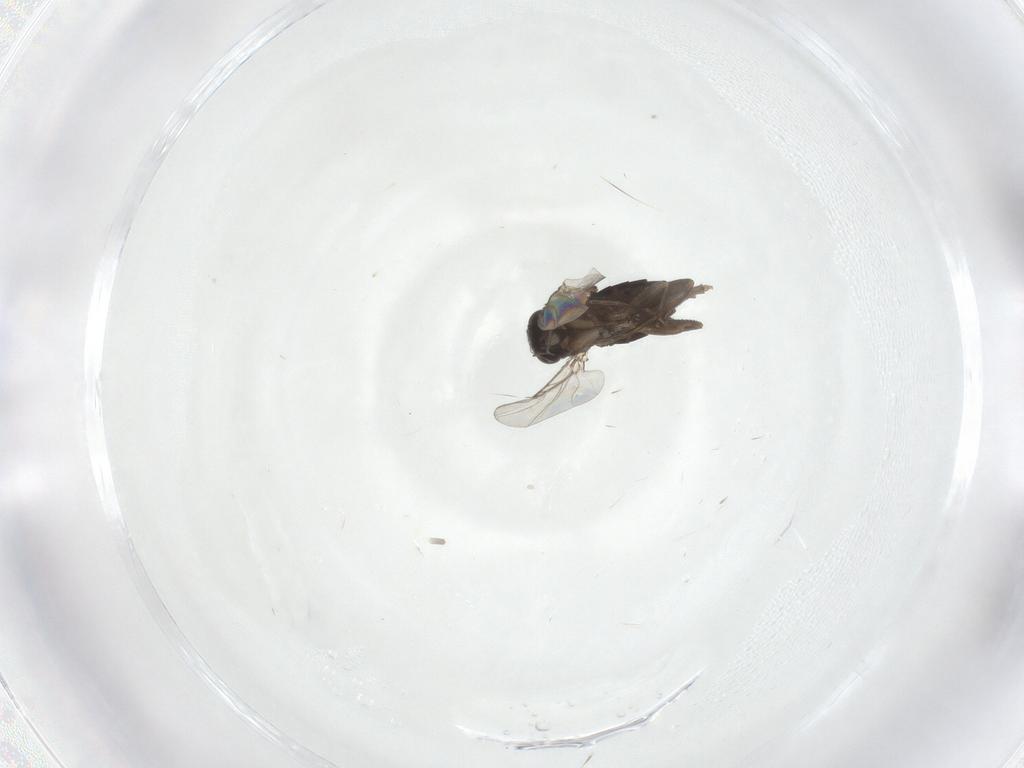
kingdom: Animalia
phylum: Arthropoda
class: Insecta
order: Diptera
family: Phoridae
